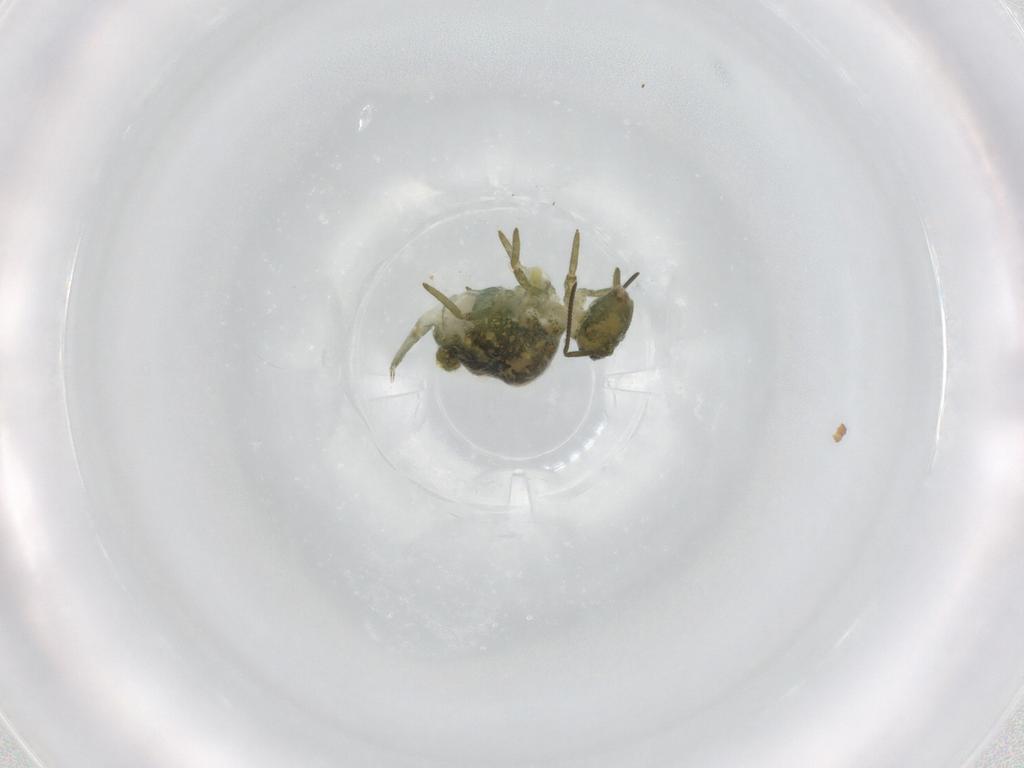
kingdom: Animalia
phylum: Arthropoda
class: Collembola
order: Symphypleona
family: Sminthuridae
